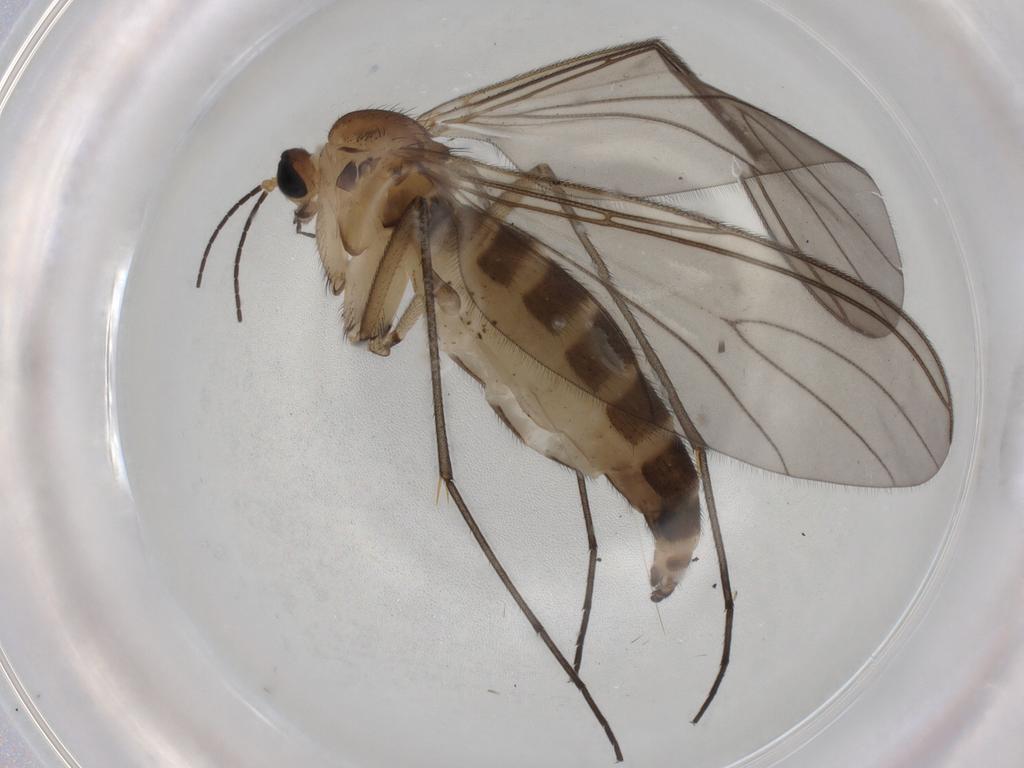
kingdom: Animalia
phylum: Arthropoda
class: Insecta
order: Diptera
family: Sciaridae
